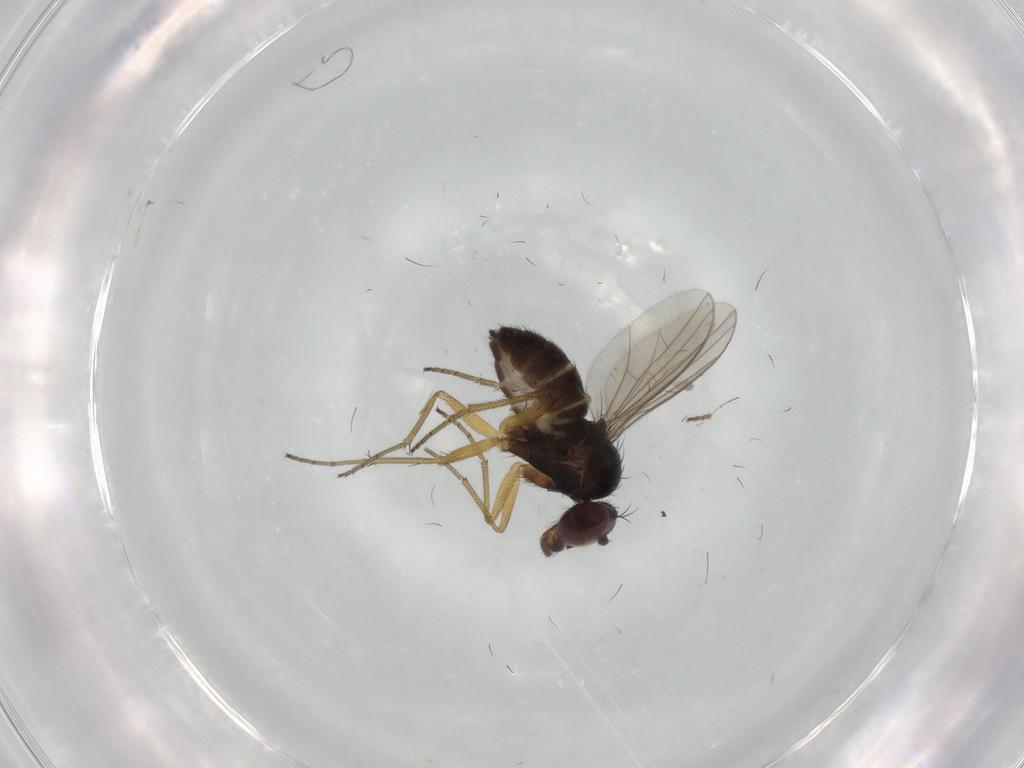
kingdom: Animalia
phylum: Arthropoda
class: Insecta
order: Diptera
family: Dolichopodidae
